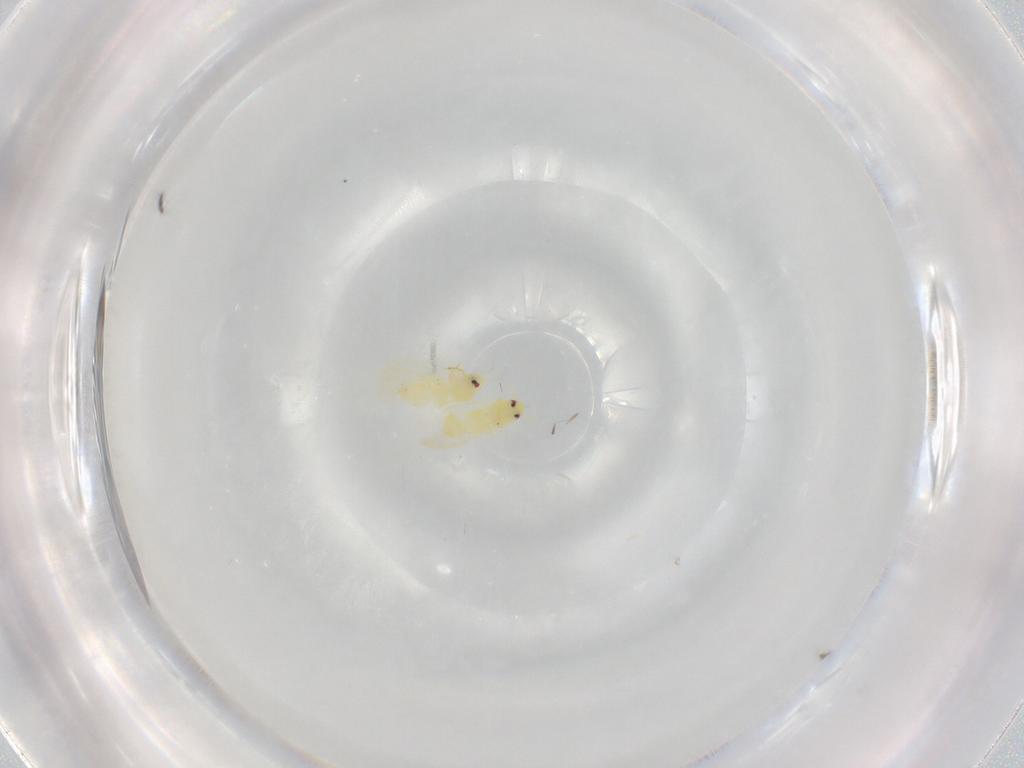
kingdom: Animalia
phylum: Arthropoda
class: Insecta
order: Hemiptera
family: Aleyrodidae
